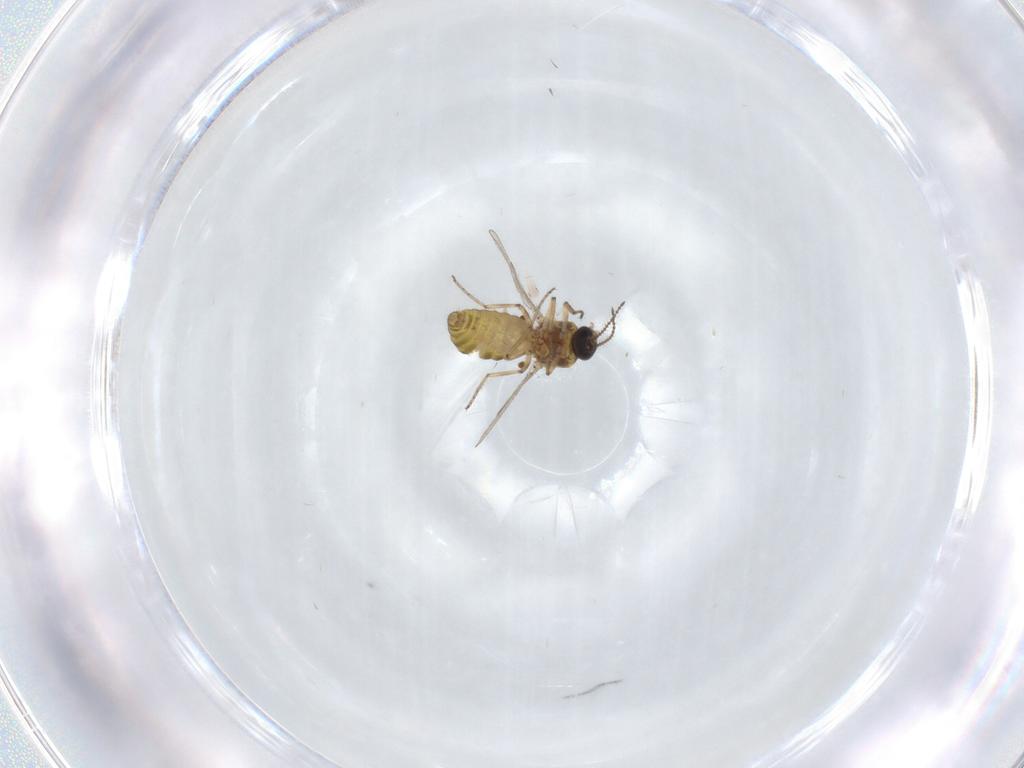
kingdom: Animalia
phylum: Arthropoda
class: Insecta
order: Diptera
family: Ceratopogonidae
